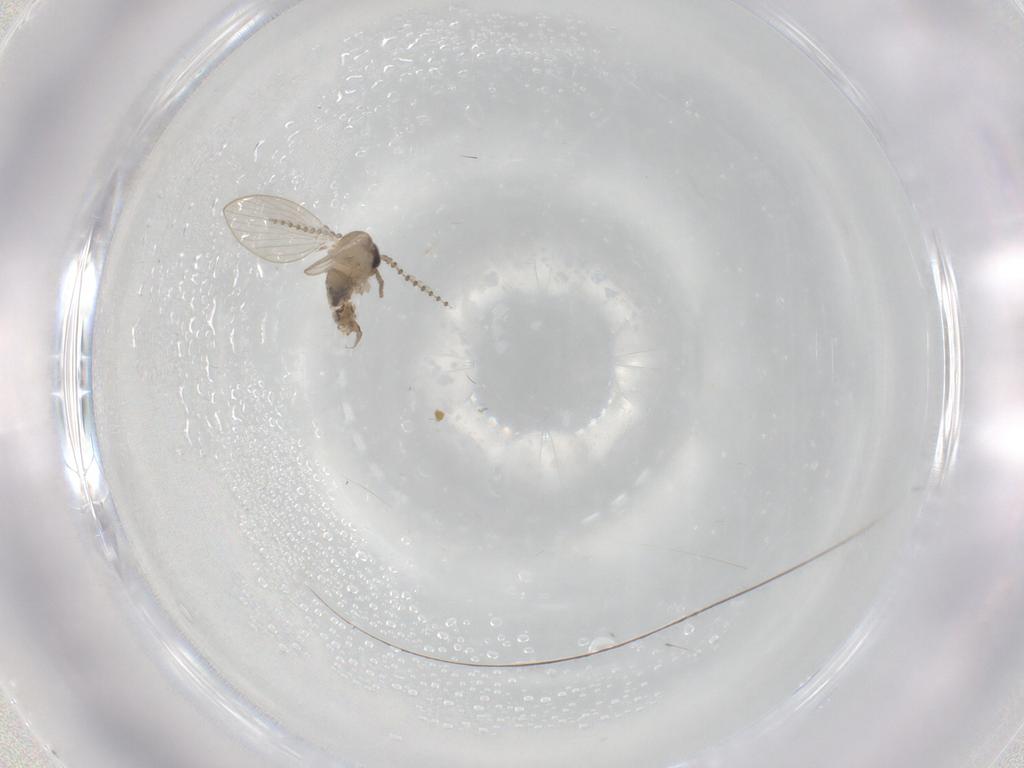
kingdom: Animalia
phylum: Arthropoda
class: Insecta
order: Diptera
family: Psychodidae
